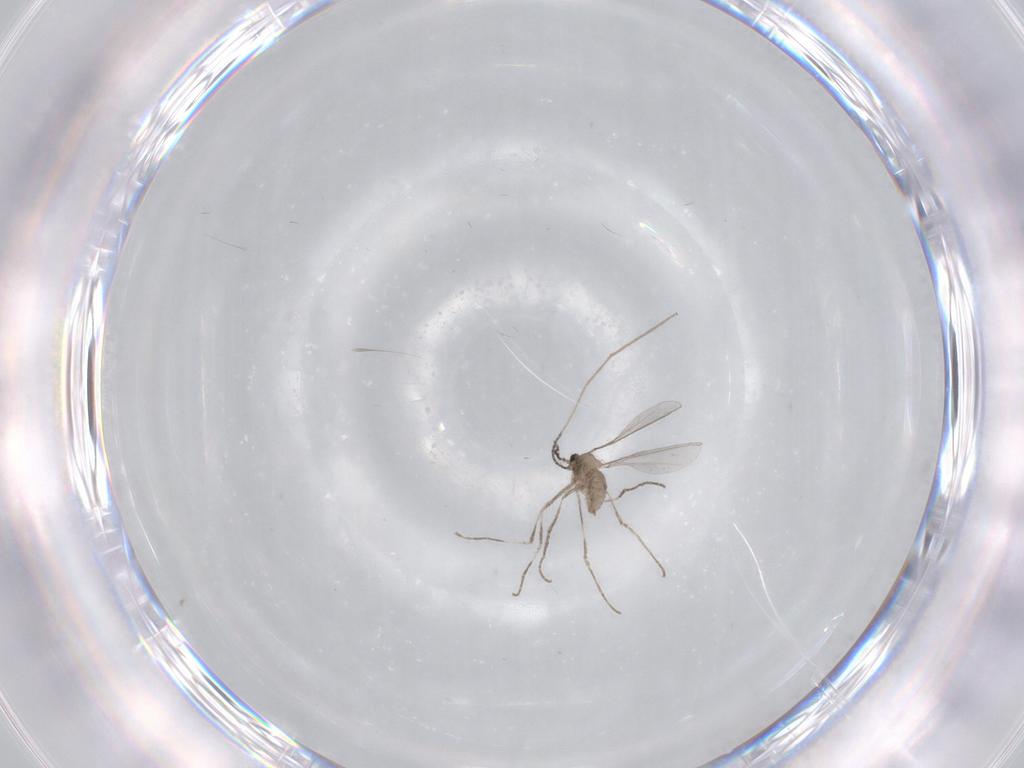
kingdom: Animalia
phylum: Arthropoda
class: Insecta
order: Diptera
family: Cecidomyiidae
